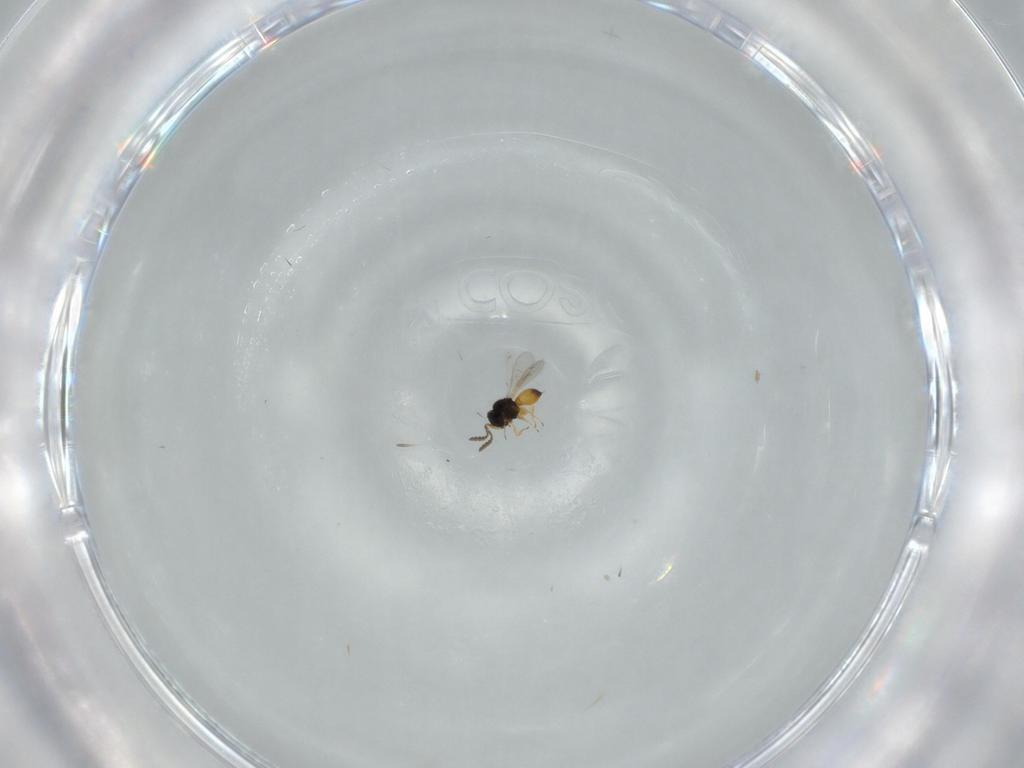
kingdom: Animalia
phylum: Arthropoda
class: Insecta
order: Hymenoptera
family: Scelionidae
